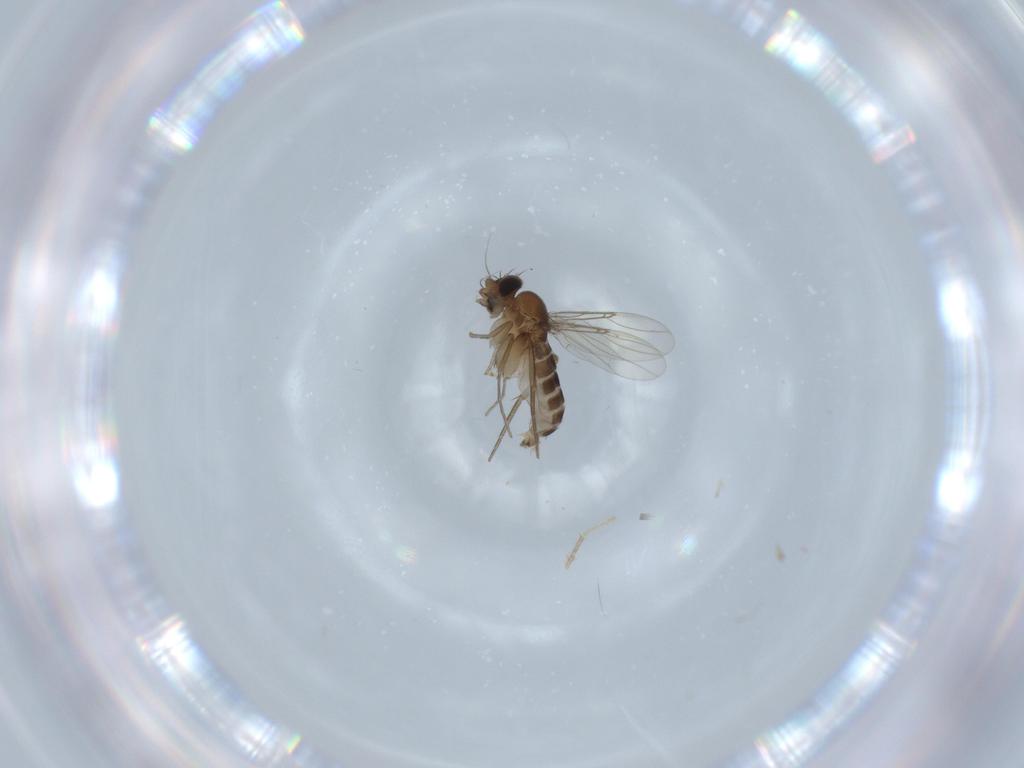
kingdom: Animalia
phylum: Arthropoda
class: Insecta
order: Diptera
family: Phoridae
